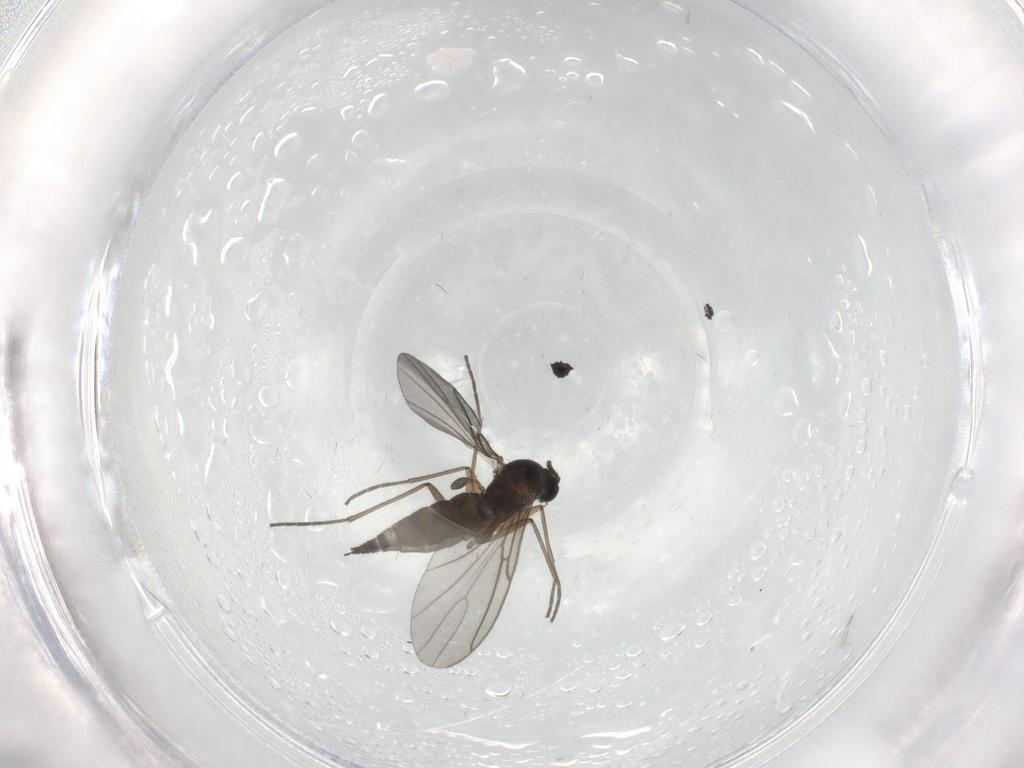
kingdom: Animalia
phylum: Arthropoda
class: Insecta
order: Diptera
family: Sciaridae
